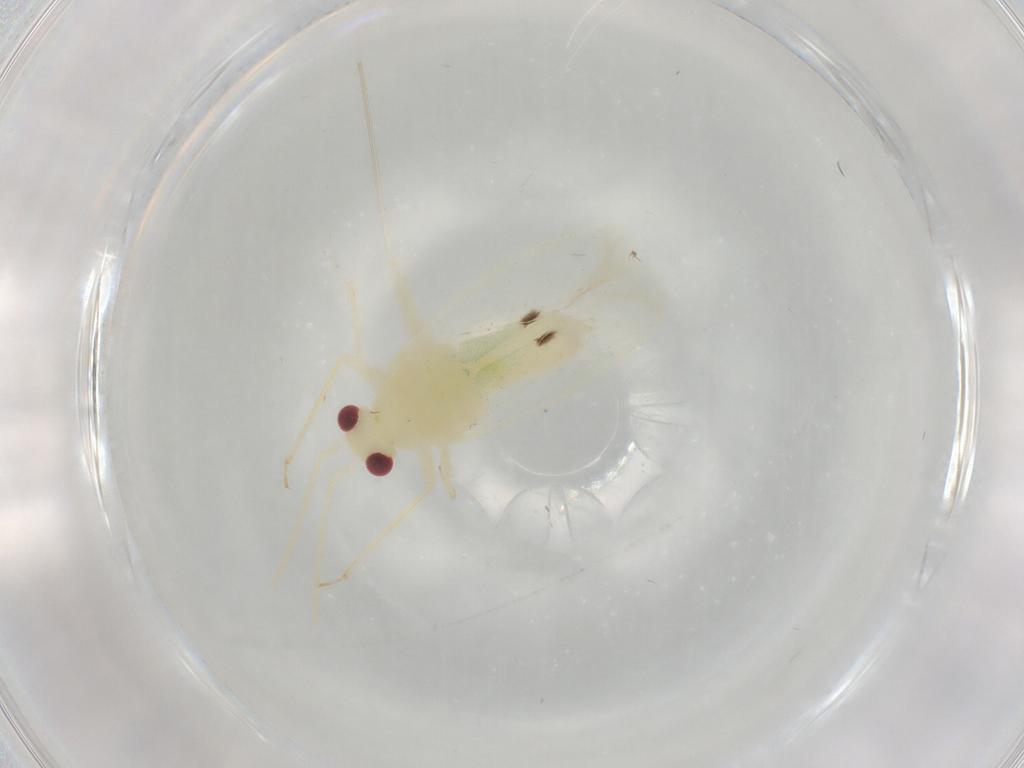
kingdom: Animalia
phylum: Arthropoda
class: Insecta
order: Hemiptera
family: Miridae
